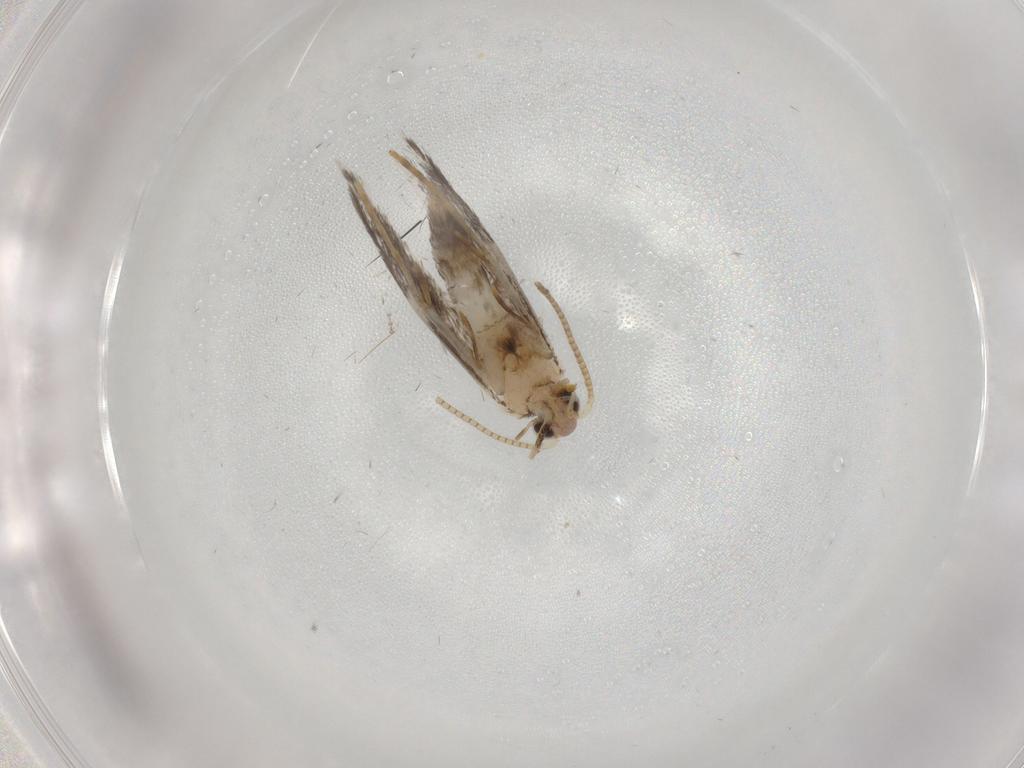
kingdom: Animalia
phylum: Arthropoda
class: Insecta
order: Lepidoptera
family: Tineidae
